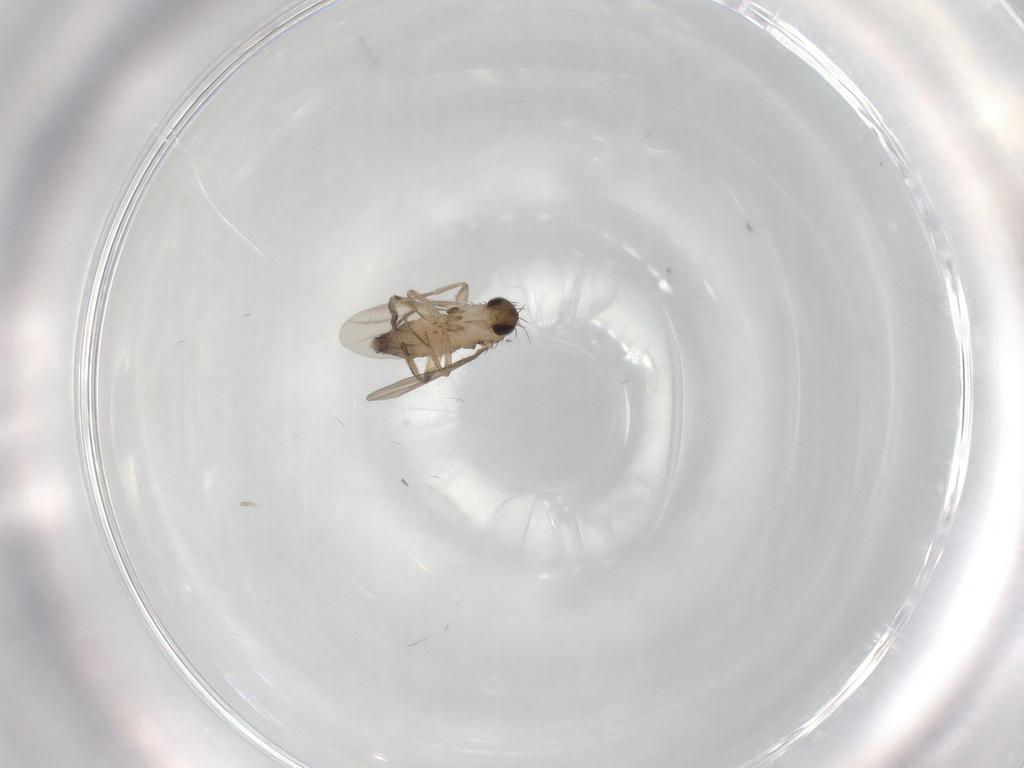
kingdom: Animalia
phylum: Arthropoda
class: Insecta
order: Diptera
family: Phoridae
